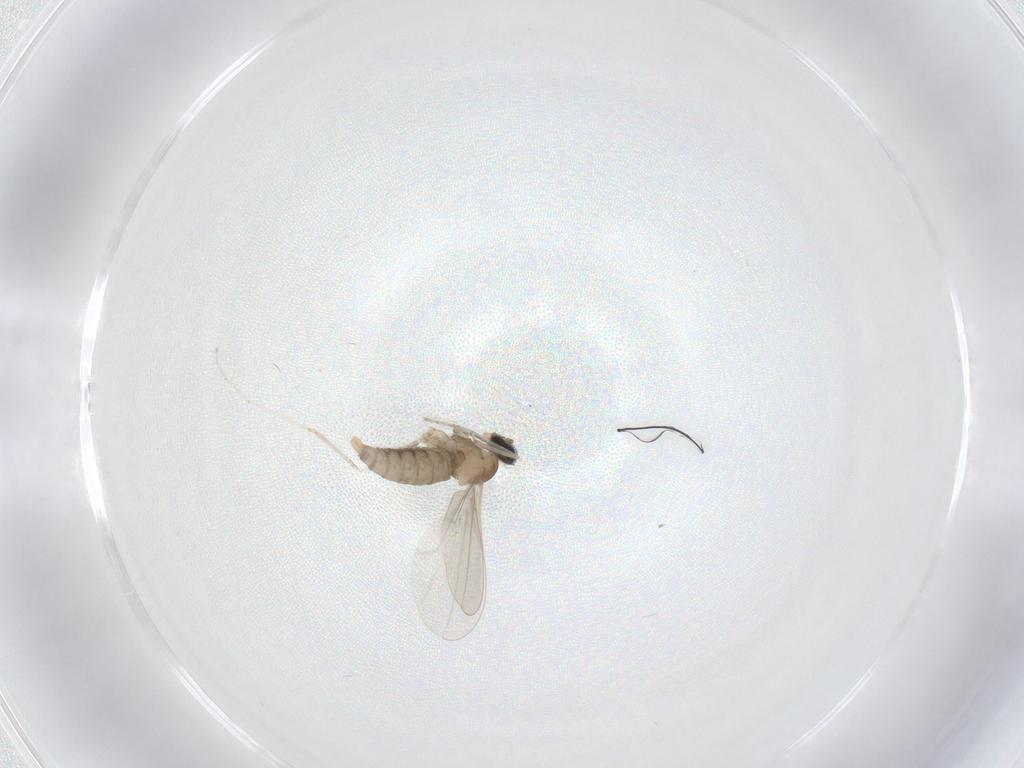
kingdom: Animalia
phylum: Arthropoda
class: Insecta
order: Diptera
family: Cecidomyiidae
